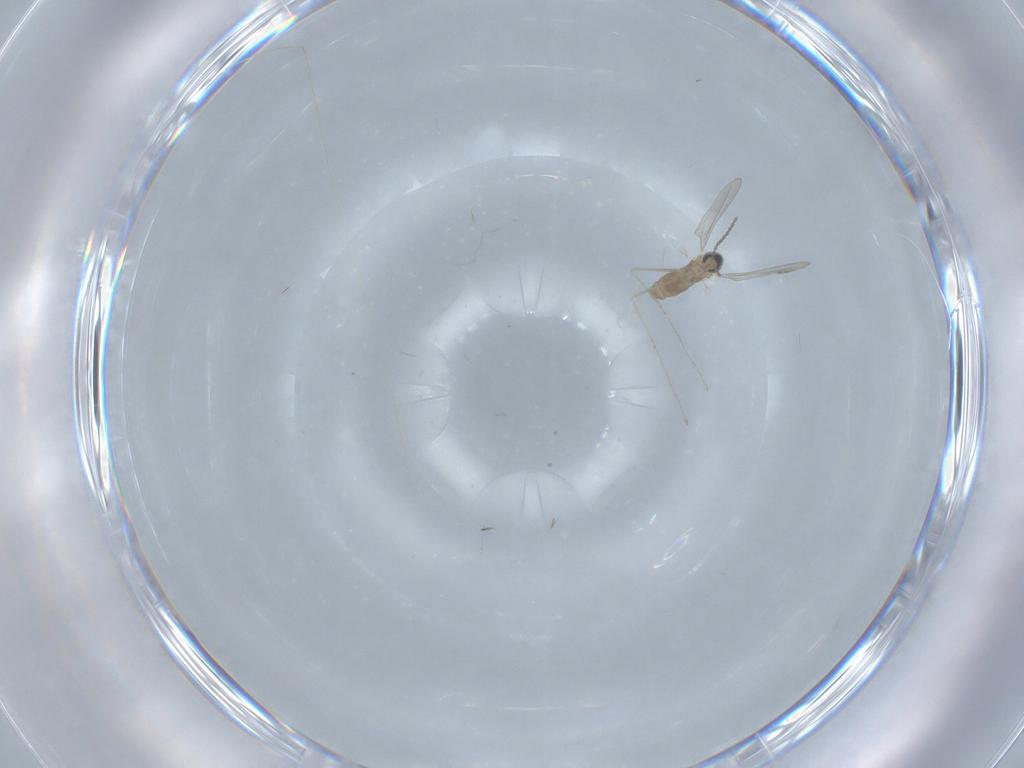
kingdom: Animalia
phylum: Arthropoda
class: Insecta
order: Diptera
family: Cecidomyiidae
